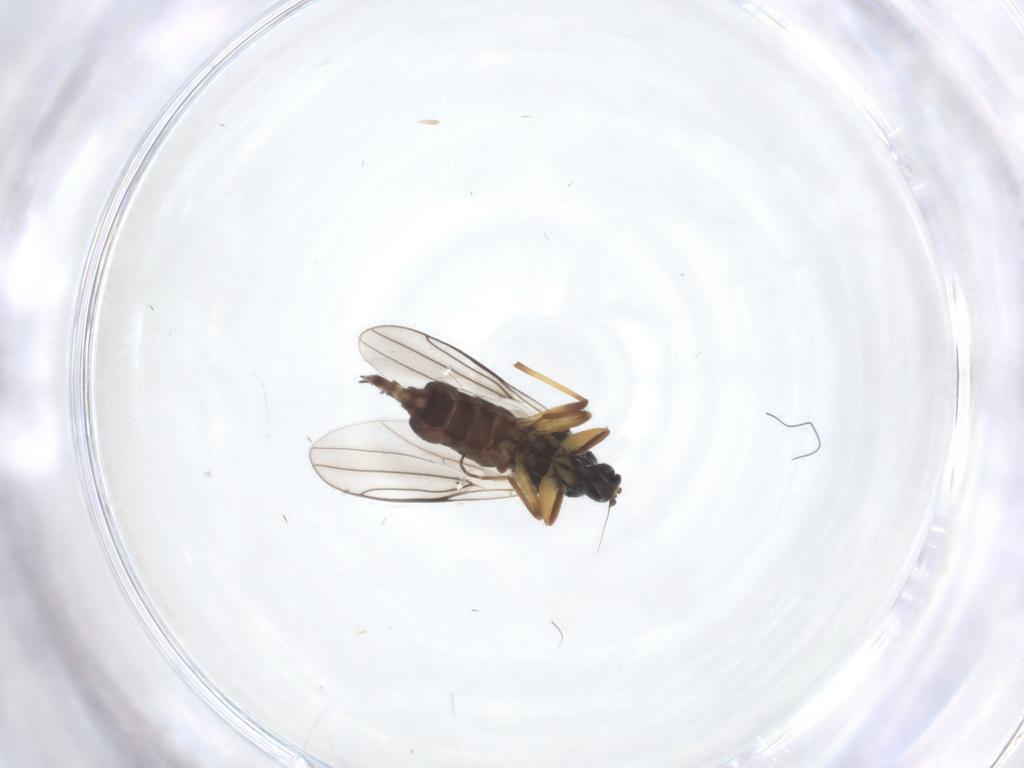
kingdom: Animalia
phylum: Arthropoda
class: Insecta
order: Diptera
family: Hybotidae
